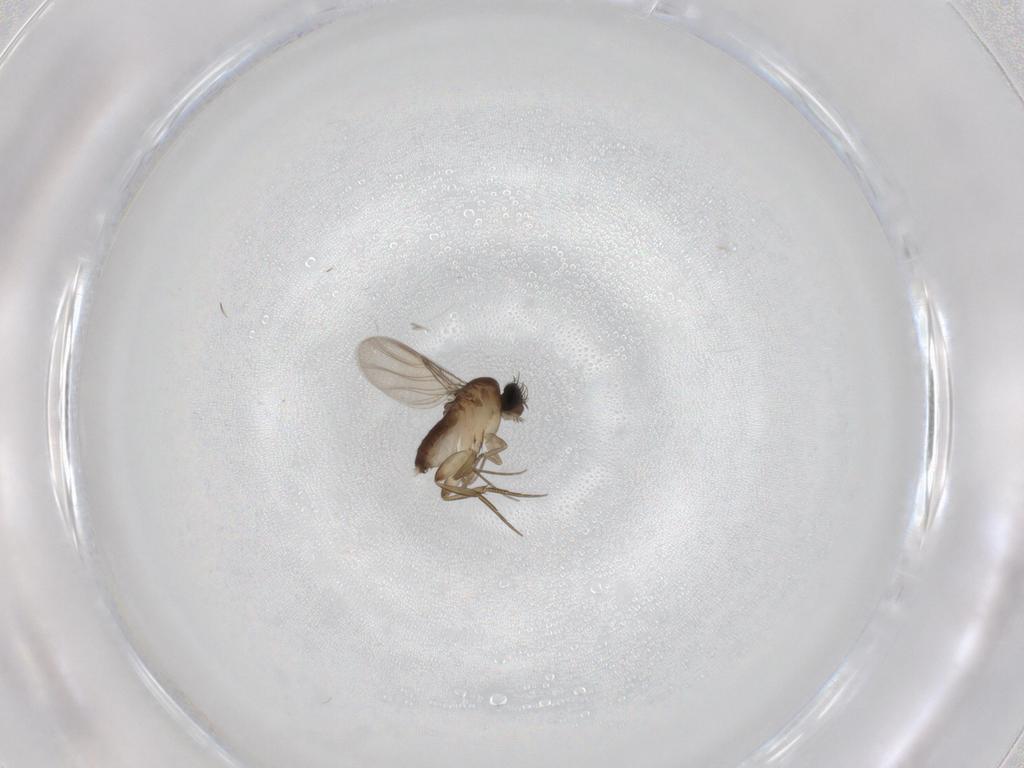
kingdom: Animalia
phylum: Arthropoda
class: Insecta
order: Diptera
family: Phoridae
